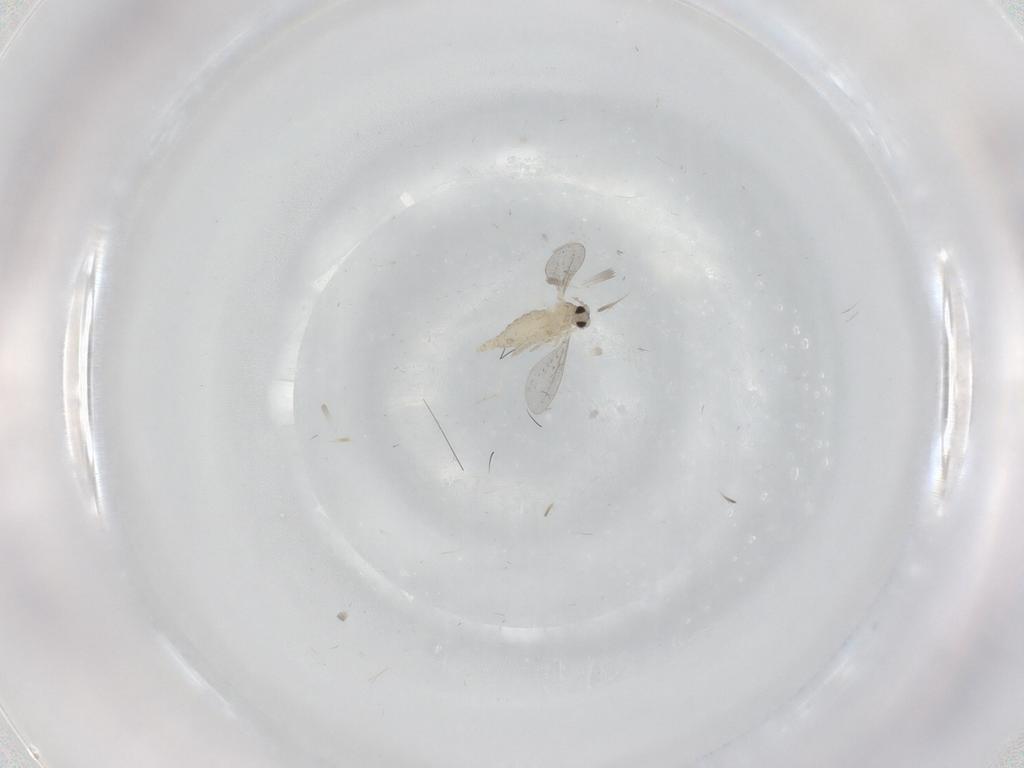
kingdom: Animalia
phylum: Arthropoda
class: Insecta
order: Diptera
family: Cecidomyiidae
